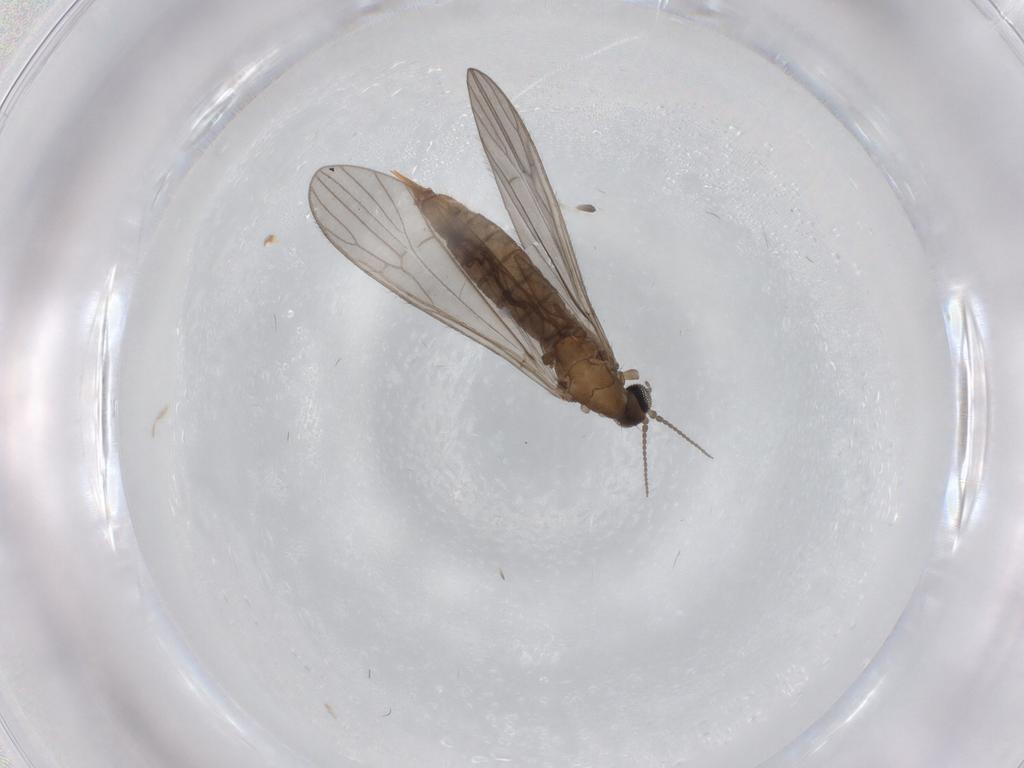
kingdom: Animalia
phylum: Arthropoda
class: Insecta
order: Diptera
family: Limoniidae
